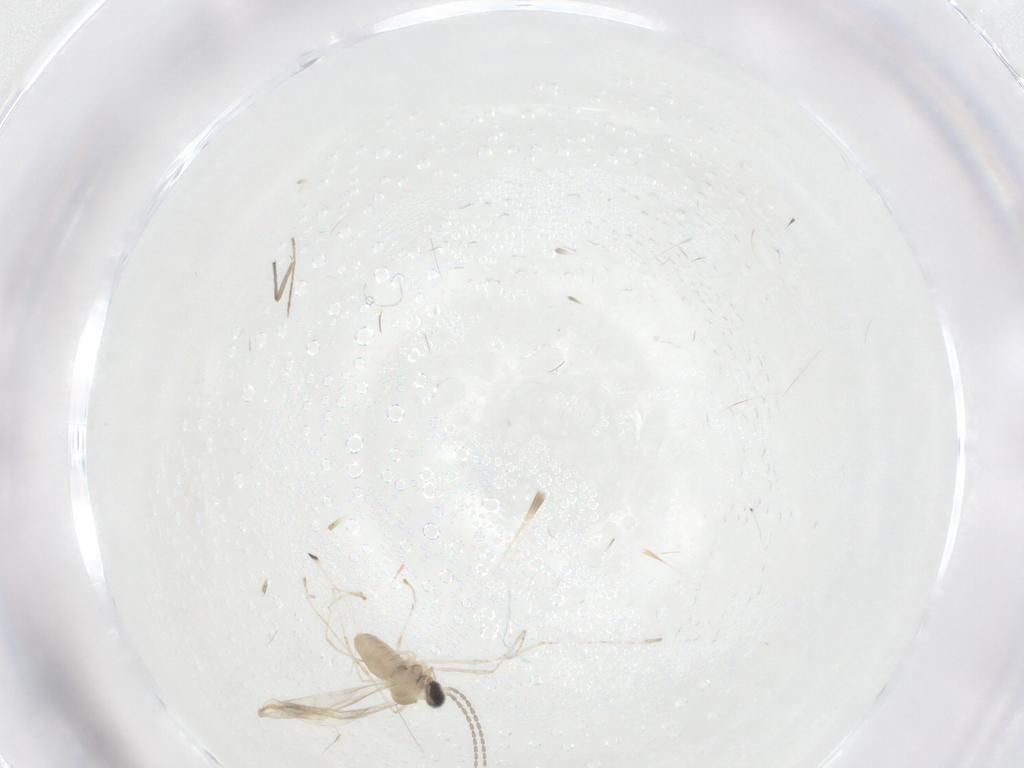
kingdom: Animalia
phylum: Arthropoda
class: Insecta
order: Diptera
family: Cecidomyiidae
